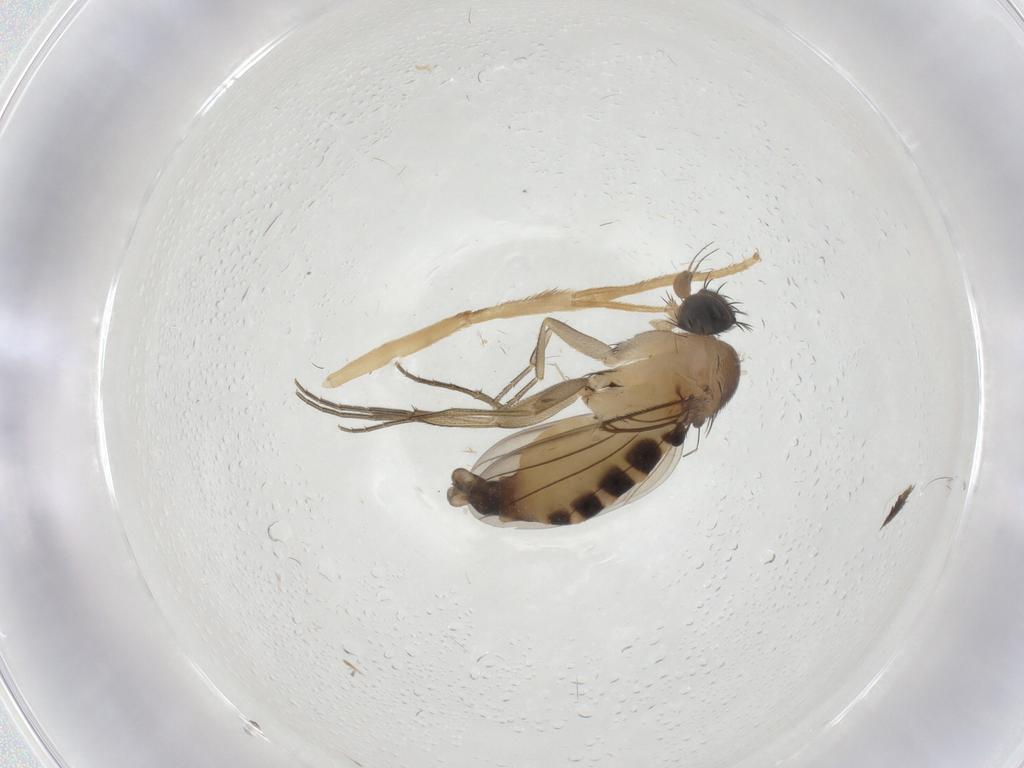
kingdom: Animalia
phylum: Arthropoda
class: Insecta
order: Diptera
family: Phoridae
